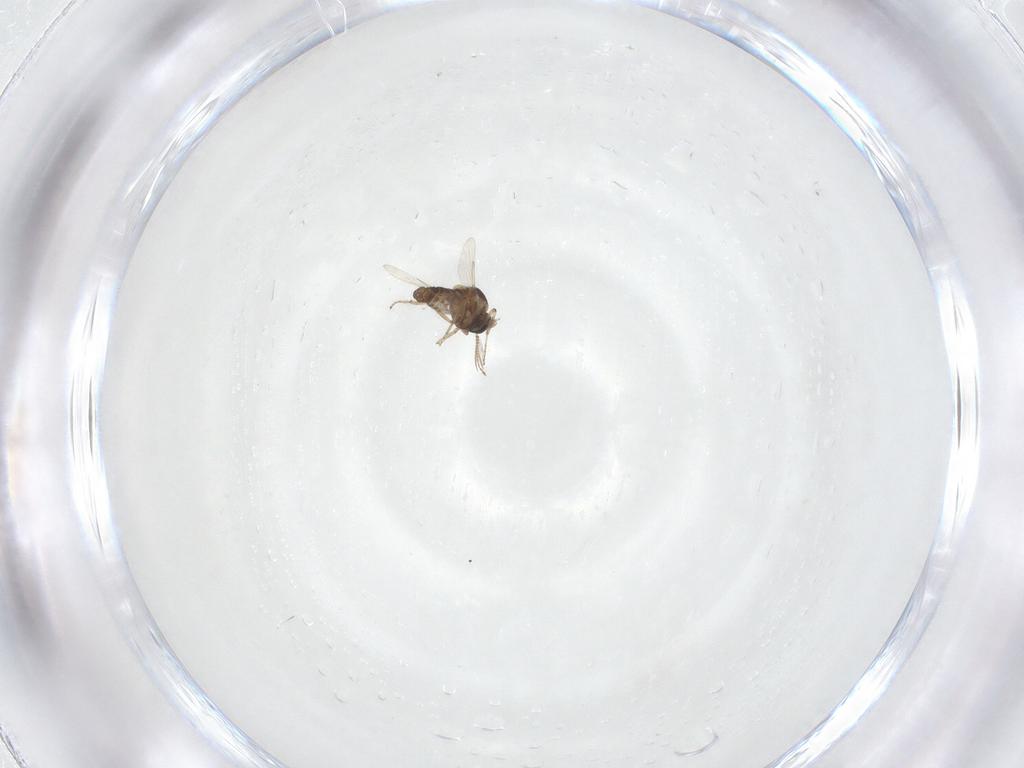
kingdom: Animalia
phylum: Arthropoda
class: Insecta
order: Diptera
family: Ceratopogonidae
